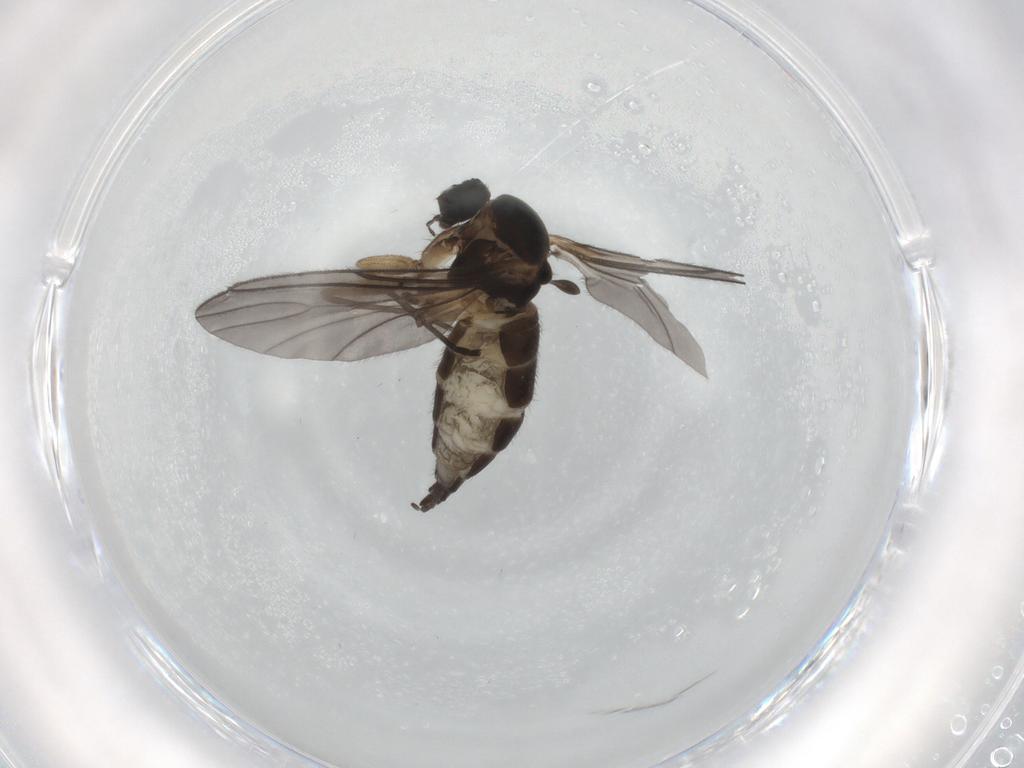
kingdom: Animalia
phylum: Arthropoda
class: Insecta
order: Diptera
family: Sciaridae
